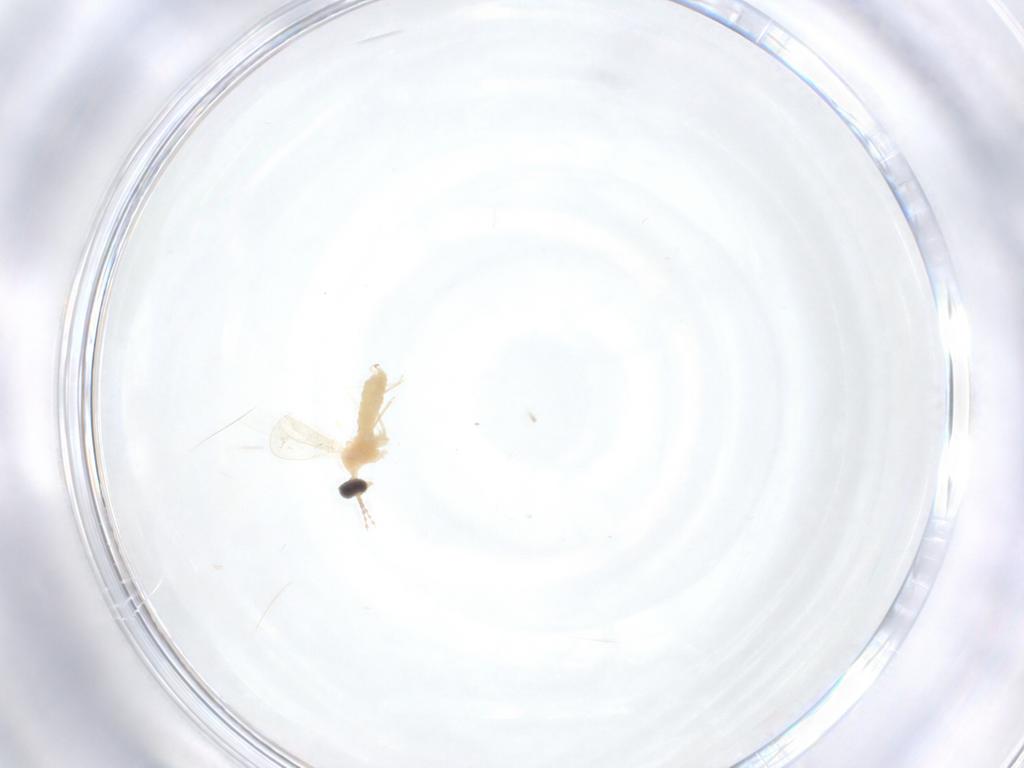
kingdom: Animalia
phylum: Arthropoda
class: Insecta
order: Diptera
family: Cecidomyiidae
